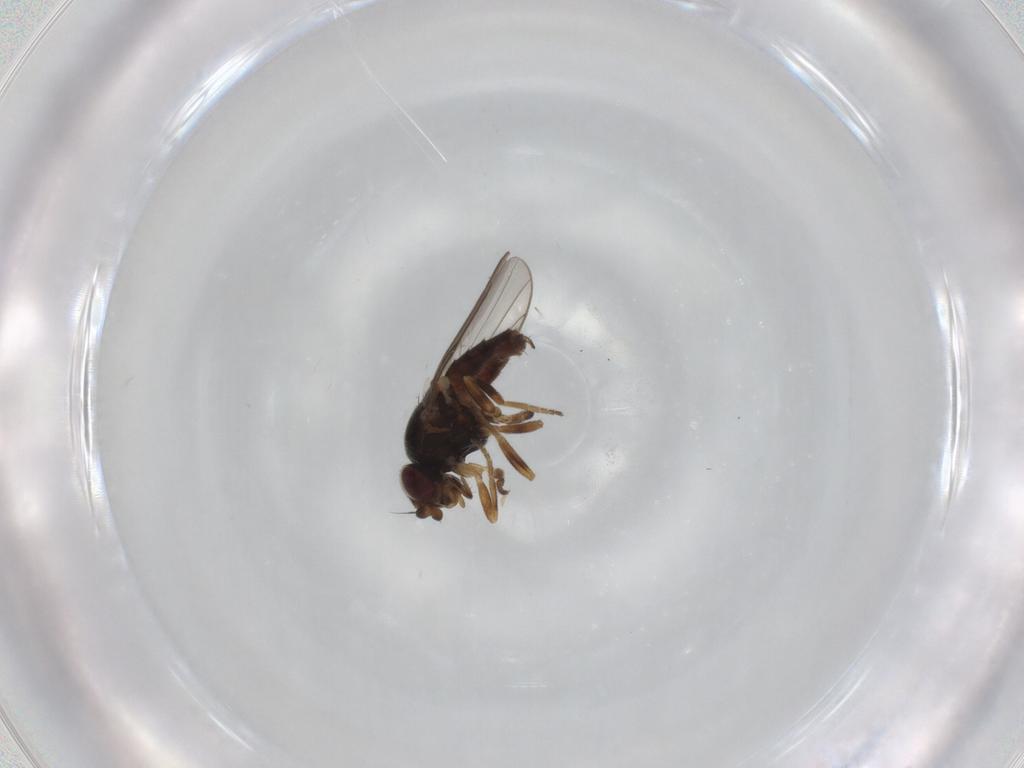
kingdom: Animalia
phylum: Arthropoda
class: Insecta
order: Diptera
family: Chloropidae
